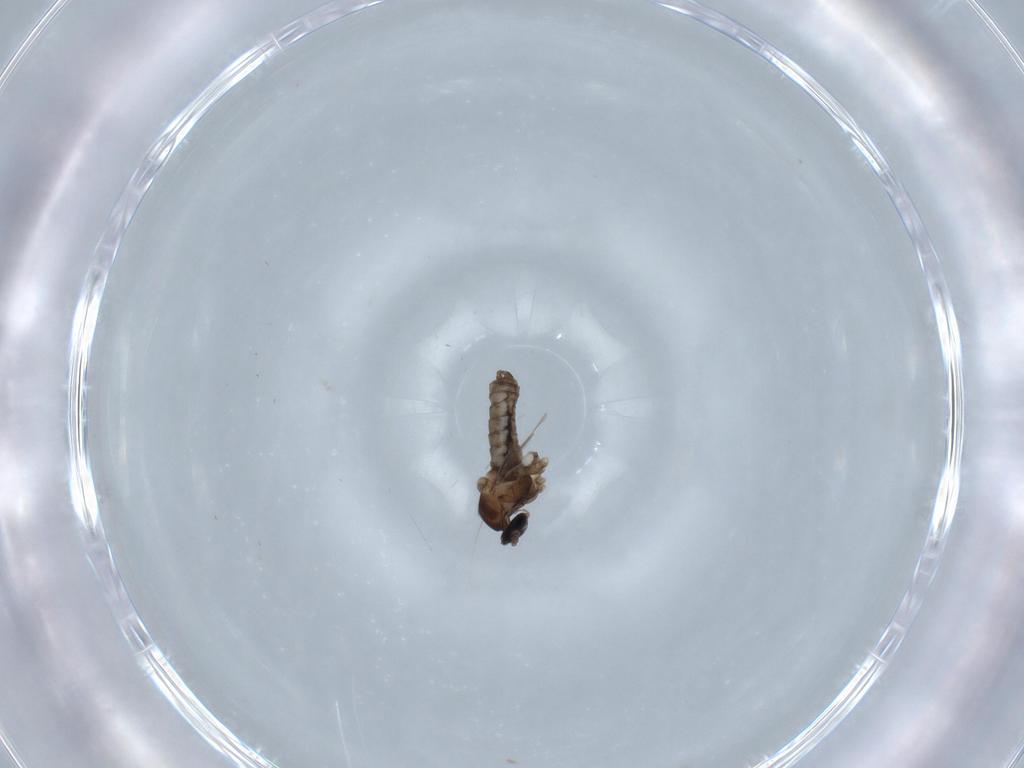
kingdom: Animalia
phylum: Arthropoda
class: Insecta
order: Diptera
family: Cecidomyiidae
